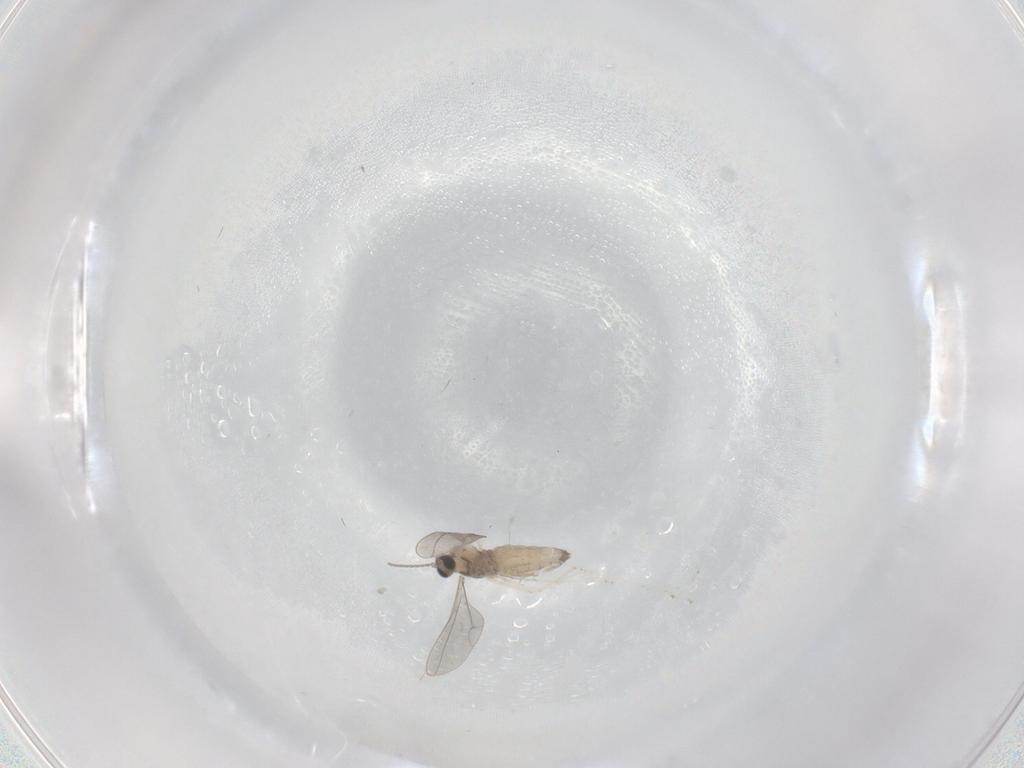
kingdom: Animalia
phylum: Arthropoda
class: Insecta
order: Diptera
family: Cecidomyiidae
